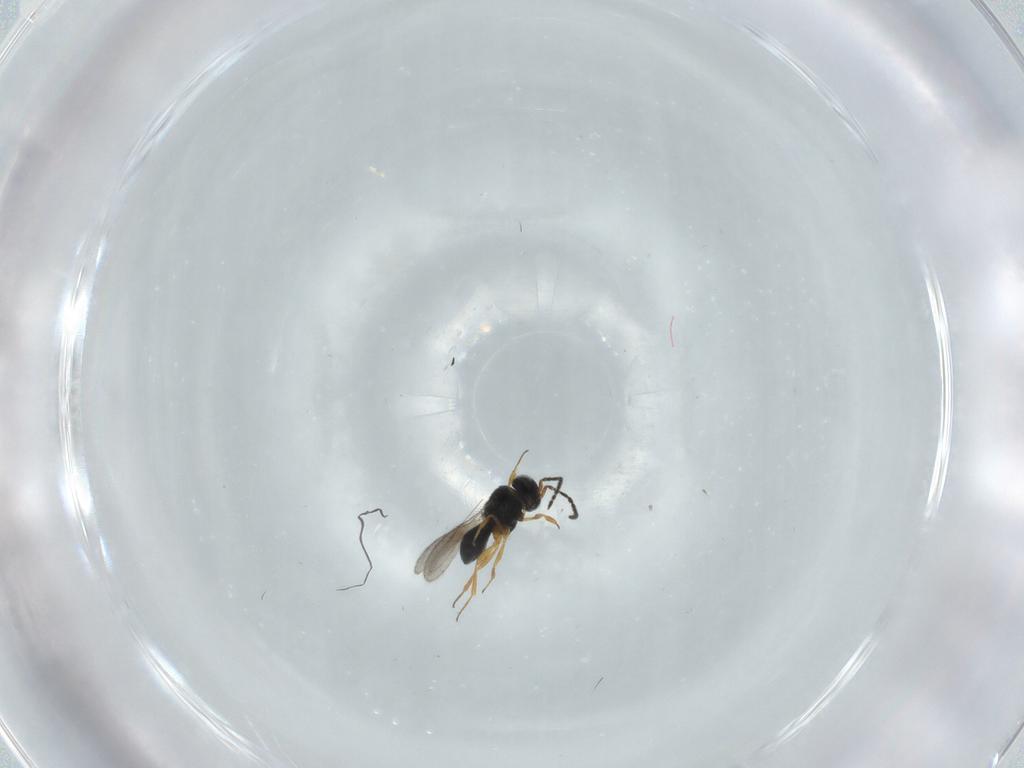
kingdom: Animalia
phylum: Arthropoda
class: Insecta
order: Hymenoptera
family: Scelionidae
